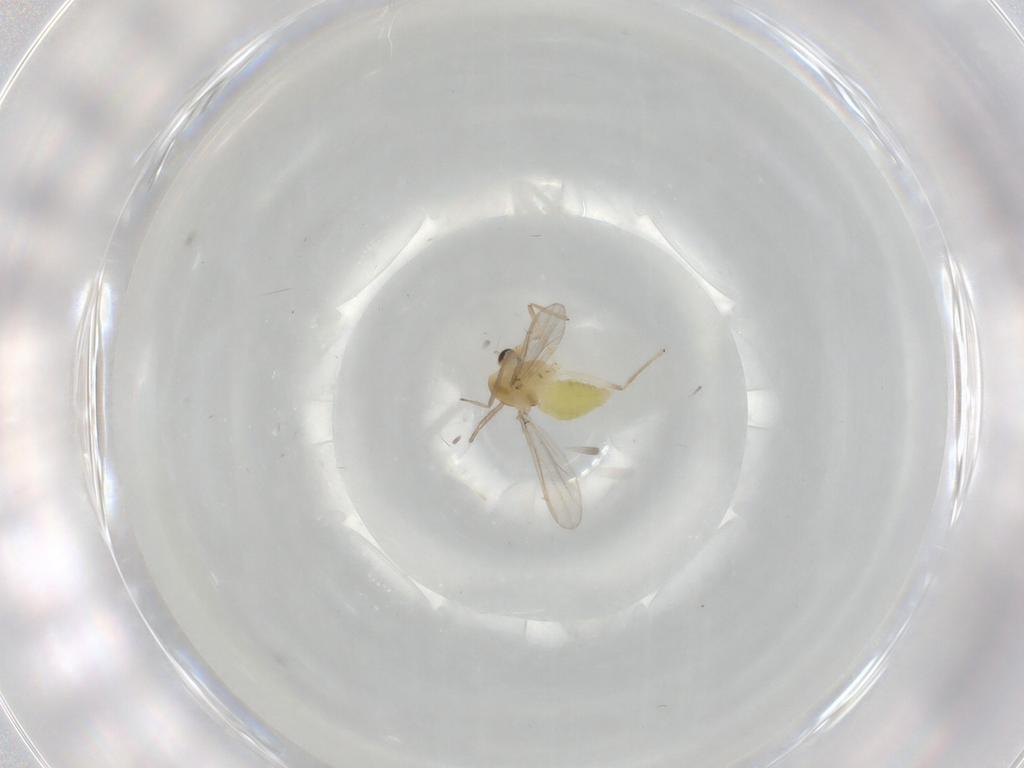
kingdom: Animalia
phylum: Arthropoda
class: Insecta
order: Diptera
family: Chironomidae
